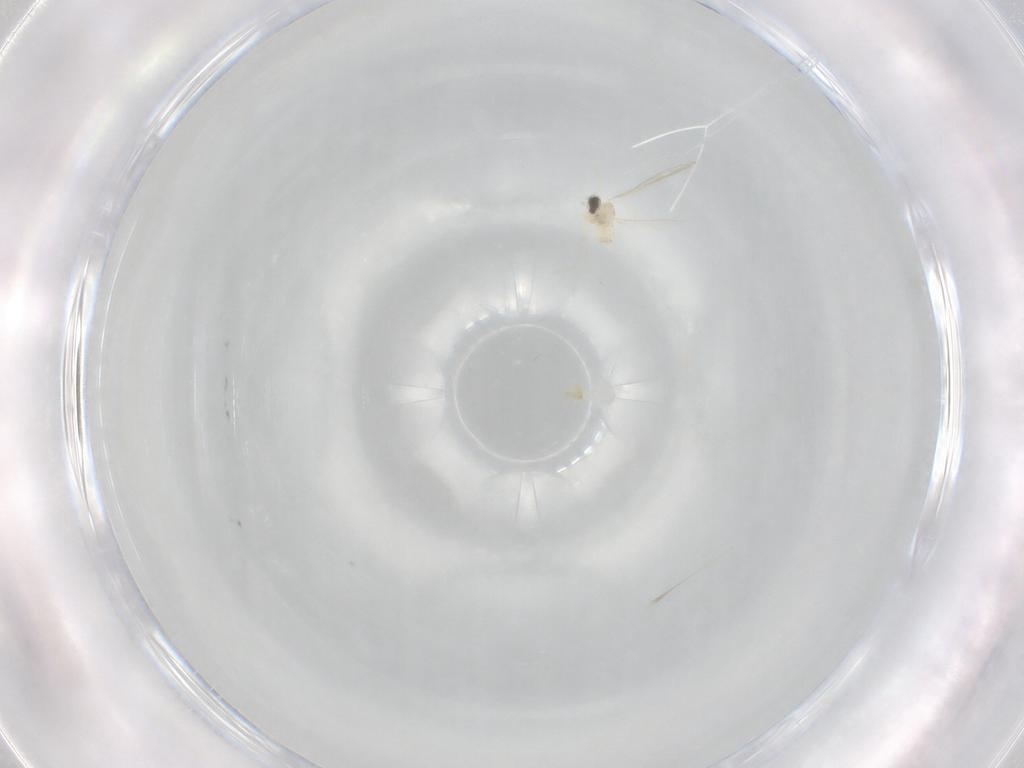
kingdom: Animalia
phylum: Arthropoda
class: Insecta
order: Diptera
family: Cecidomyiidae
